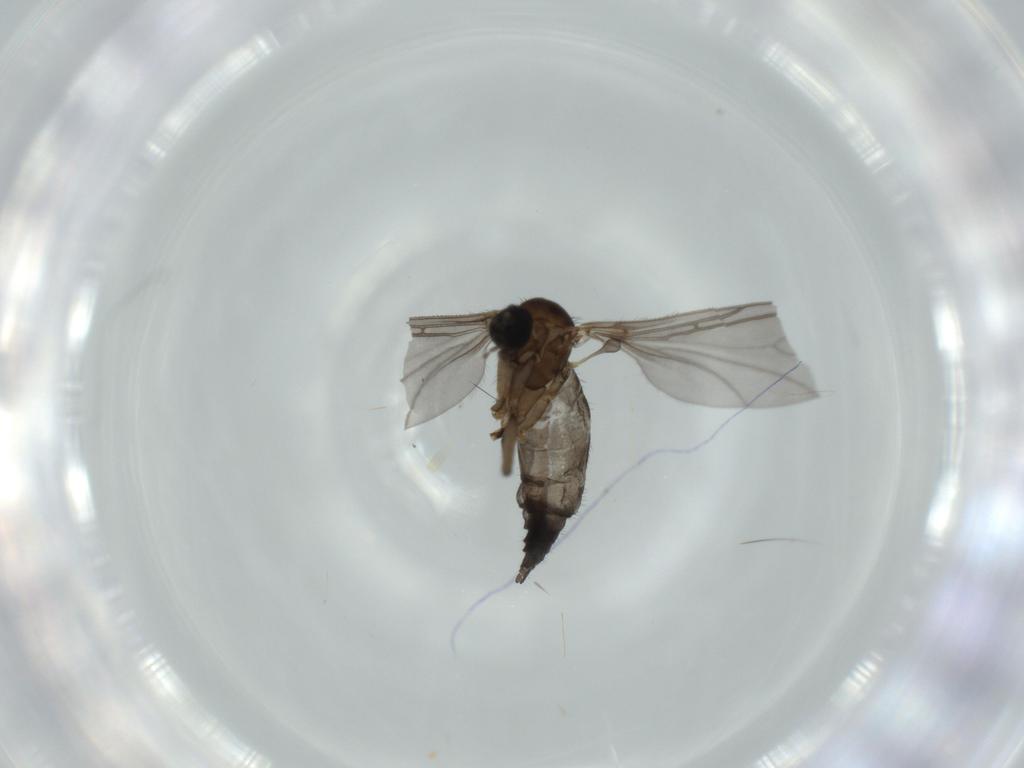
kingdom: Animalia
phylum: Arthropoda
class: Insecta
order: Diptera
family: Sciaridae
